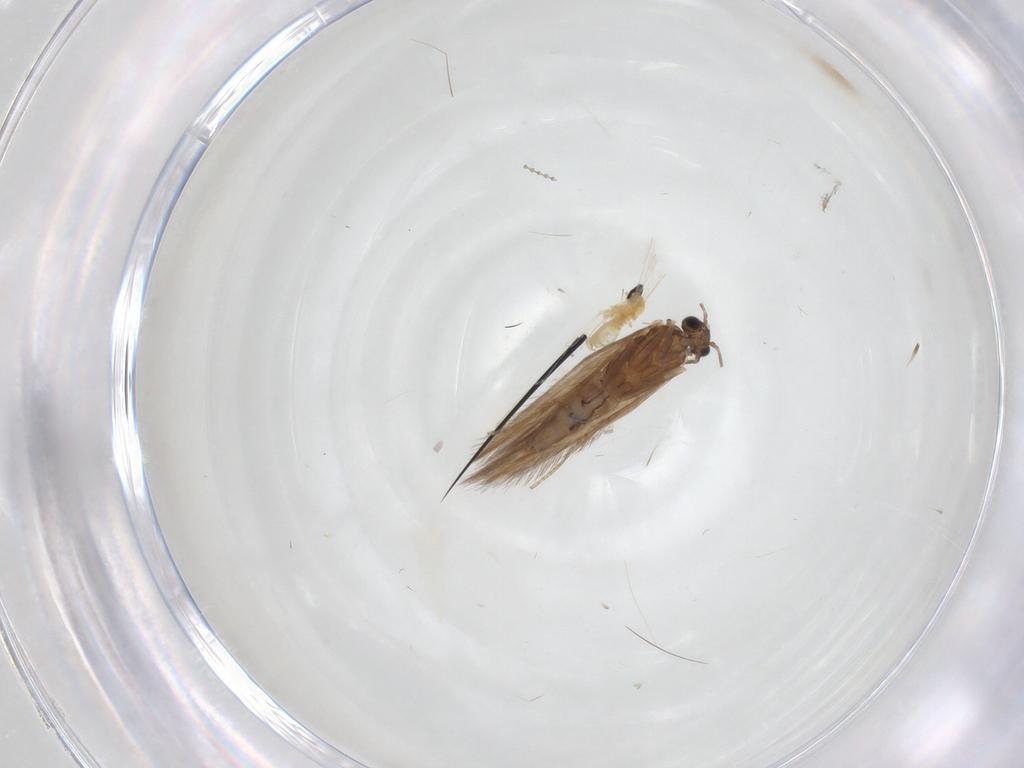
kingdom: Animalia
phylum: Arthropoda
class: Insecta
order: Diptera
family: Cecidomyiidae
